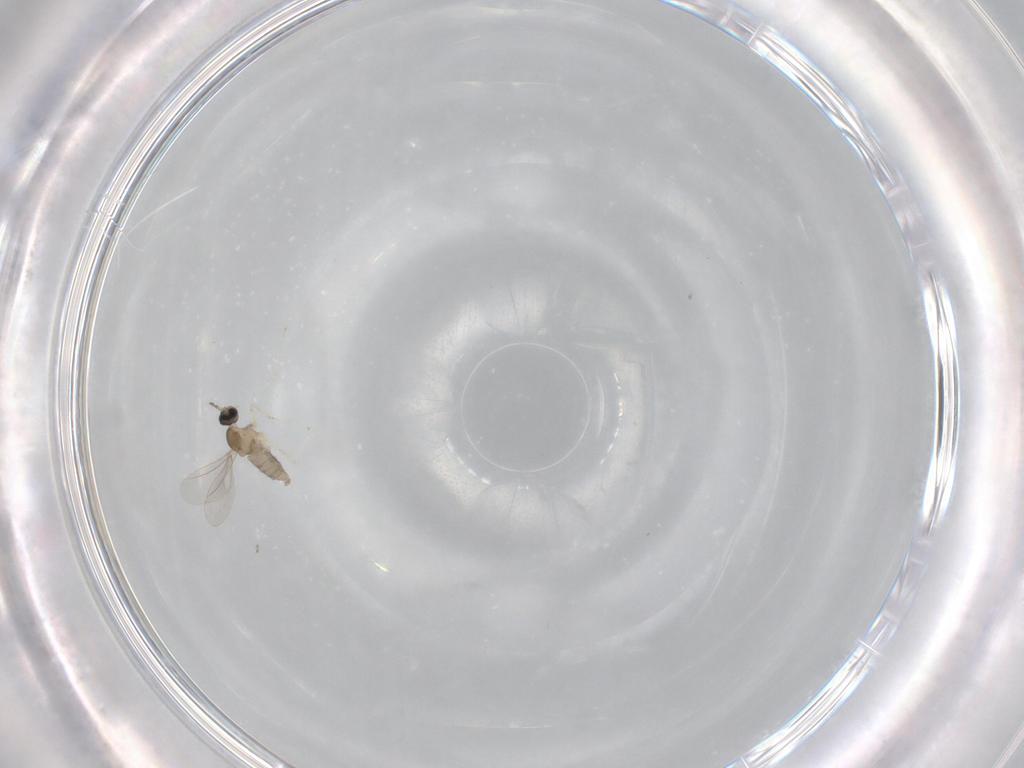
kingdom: Animalia
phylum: Arthropoda
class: Insecta
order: Diptera
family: Cecidomyiidae
